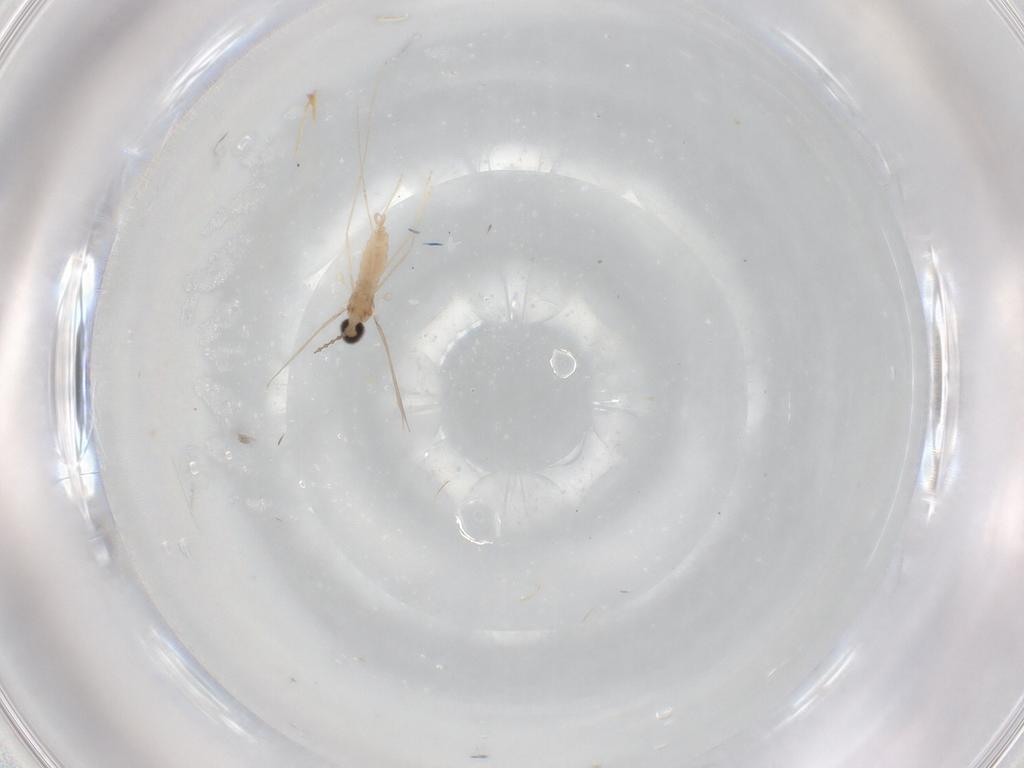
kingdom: Animalia
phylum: Arthropoda
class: Insecta
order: Diptera
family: Cecidomyiidae
